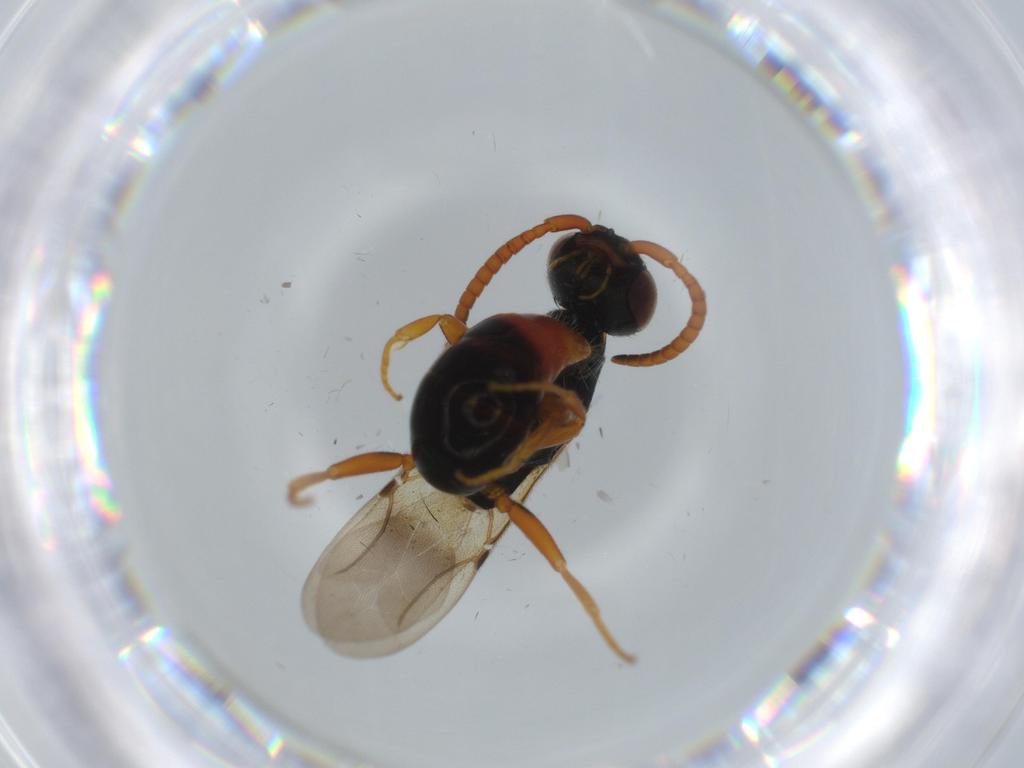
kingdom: Animalia
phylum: Arthropoda
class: Insecta
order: Hymenoptera
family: Bethylidae
